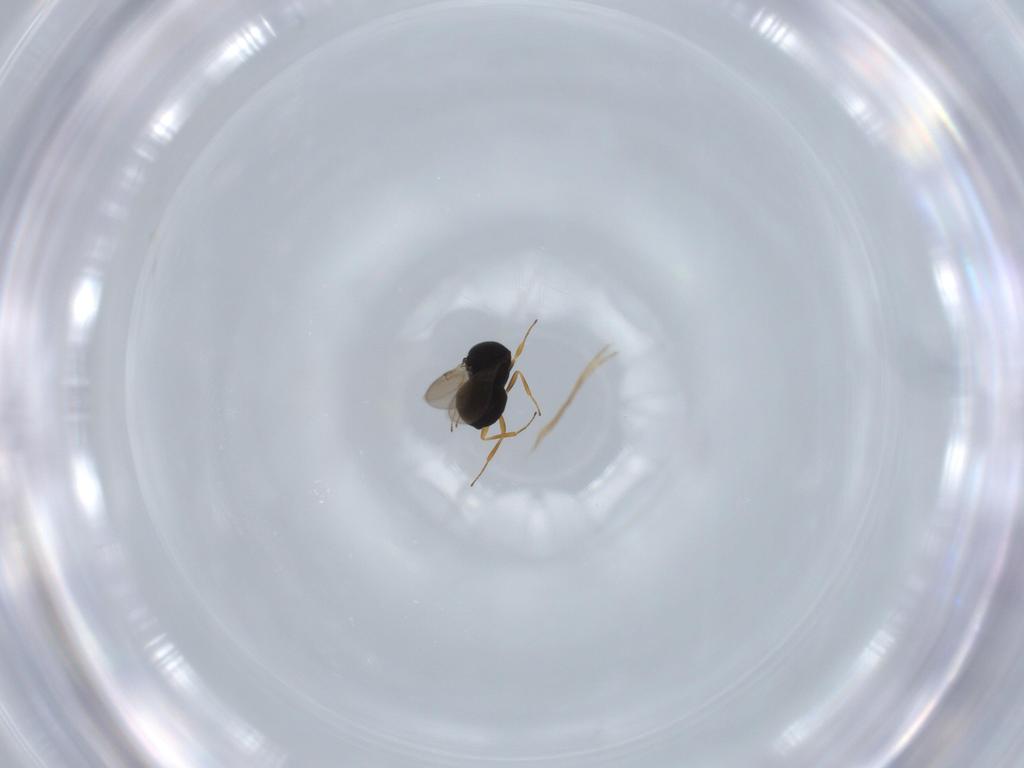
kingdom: Animalia
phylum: Arthropoda
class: Insecta
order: Hymenoptera
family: Scelionidae
